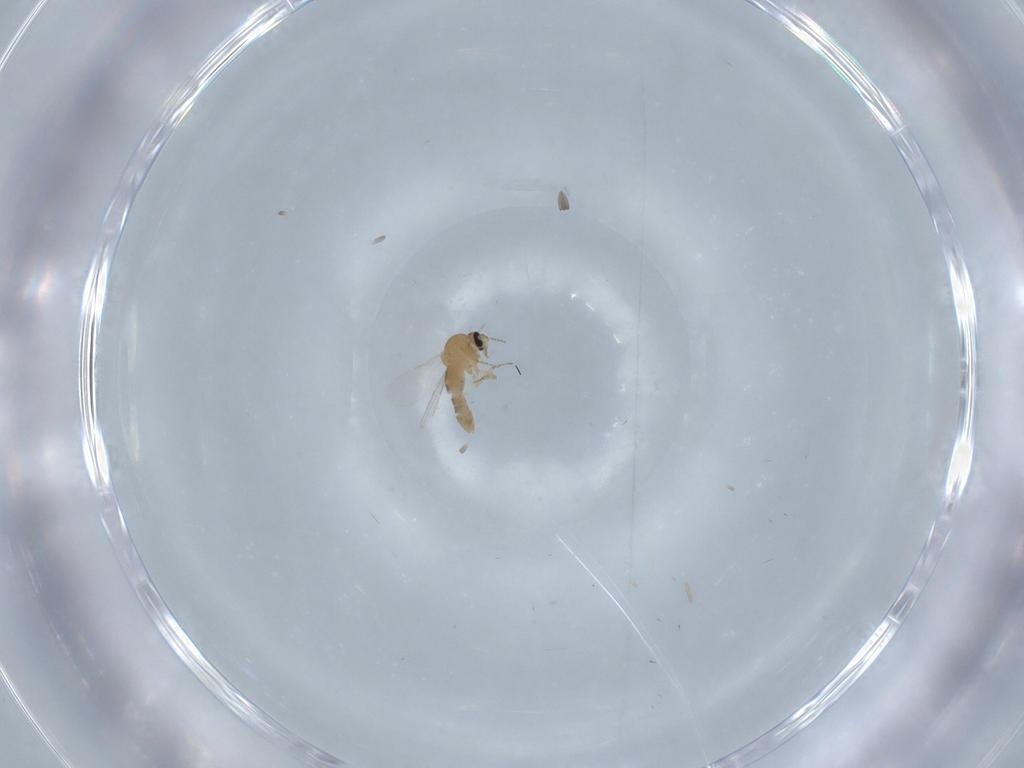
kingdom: Animalia
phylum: Arthropoda
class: Insecta
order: Diptera
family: Ceratopogonidae
